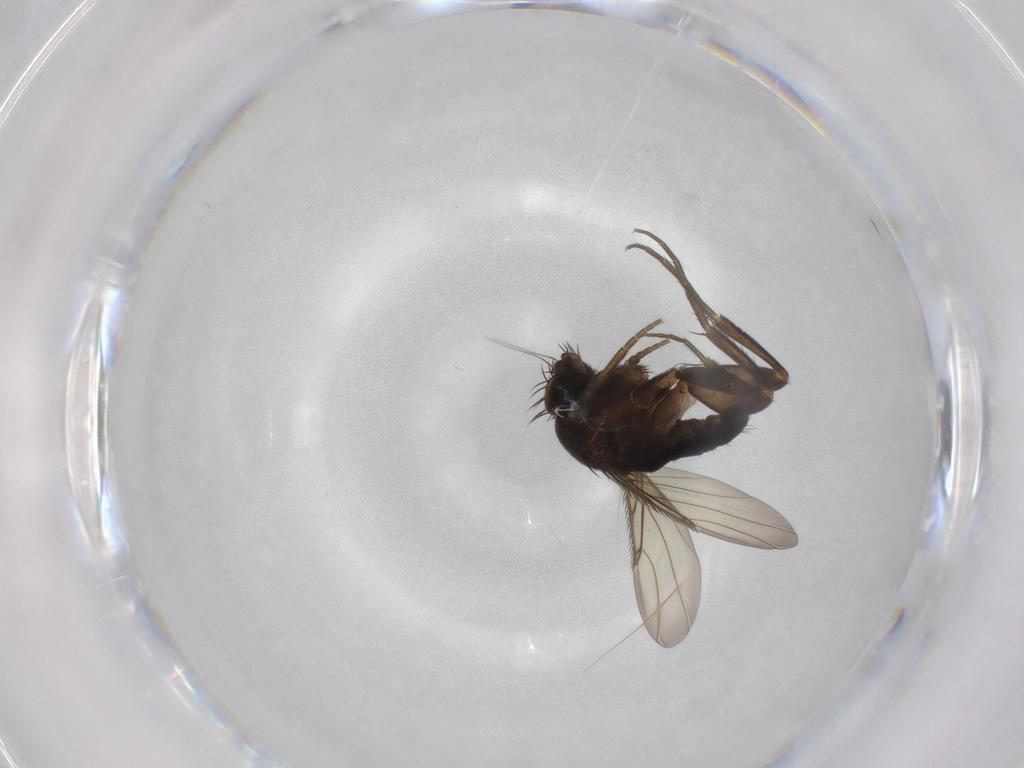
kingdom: Animalia
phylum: Arthropoda
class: Insecta
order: Diptera
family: Phoridae
